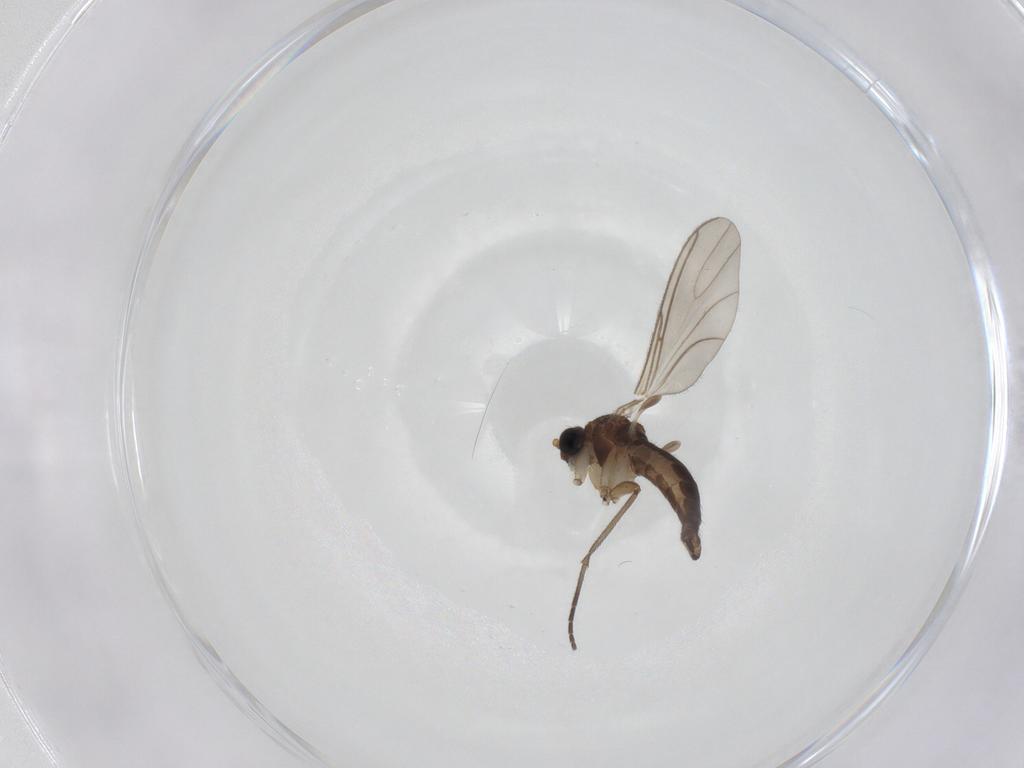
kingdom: Animalia
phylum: Arthropoda
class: Insecta
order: Diptera
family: Sciaridae
